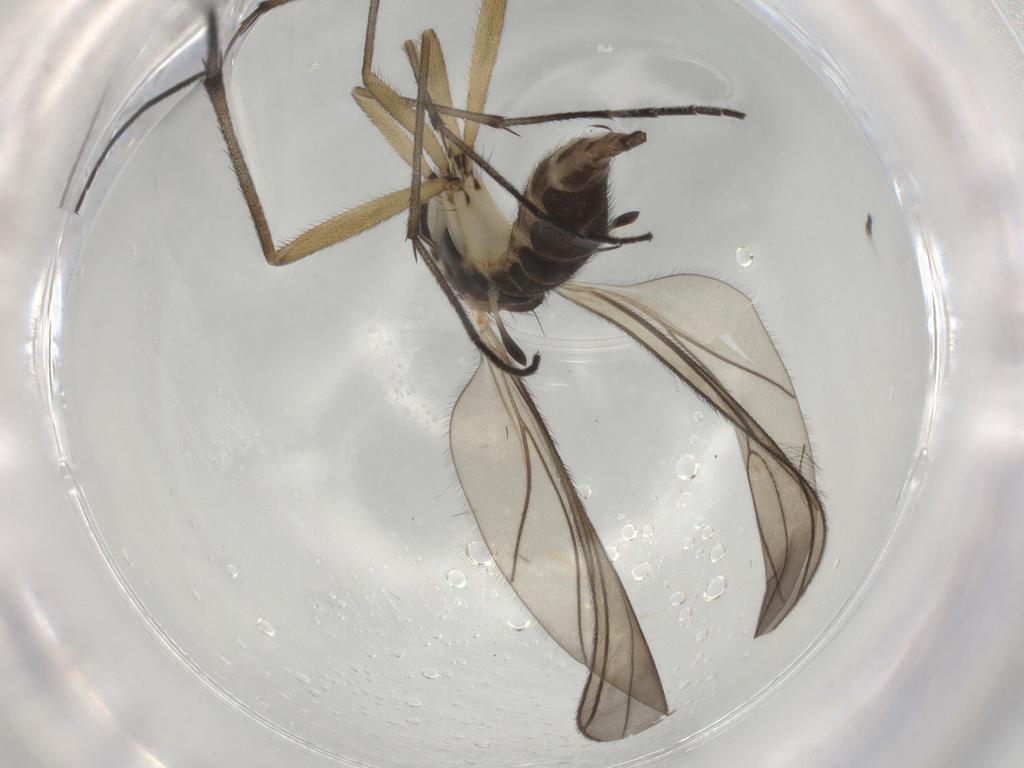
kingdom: Animalia
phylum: Arthropoda
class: Insecta
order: Diptera
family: Sciaridae
